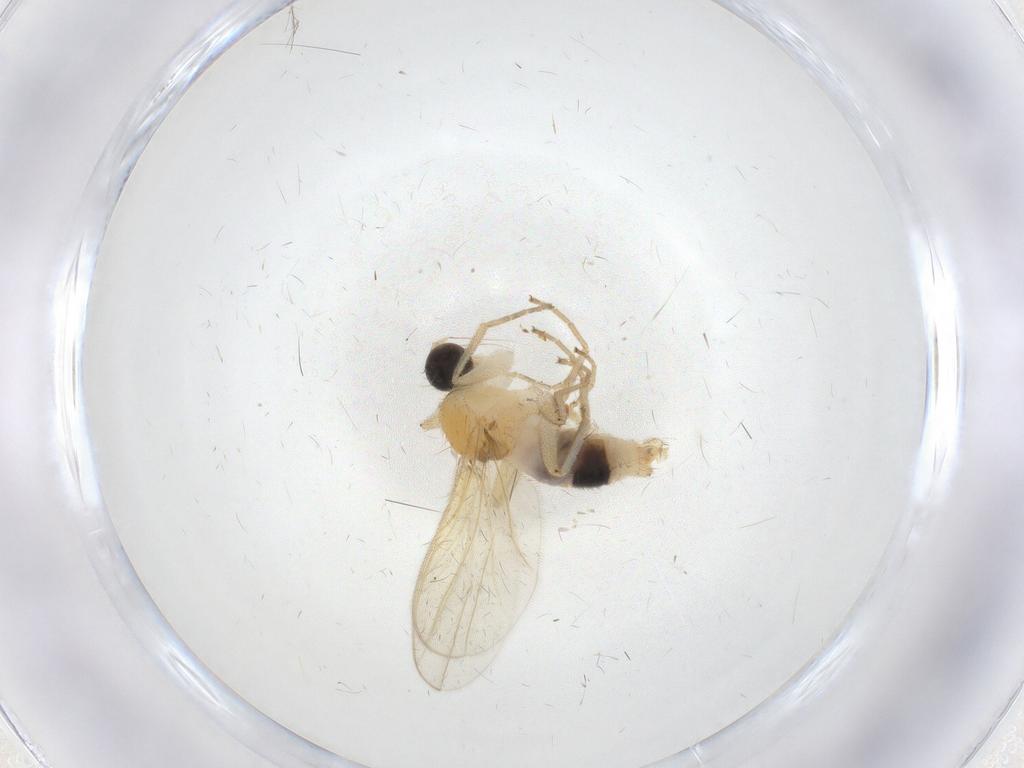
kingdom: Animalia
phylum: Arthropoda
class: Insecta
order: Diptera
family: Hybotidae
